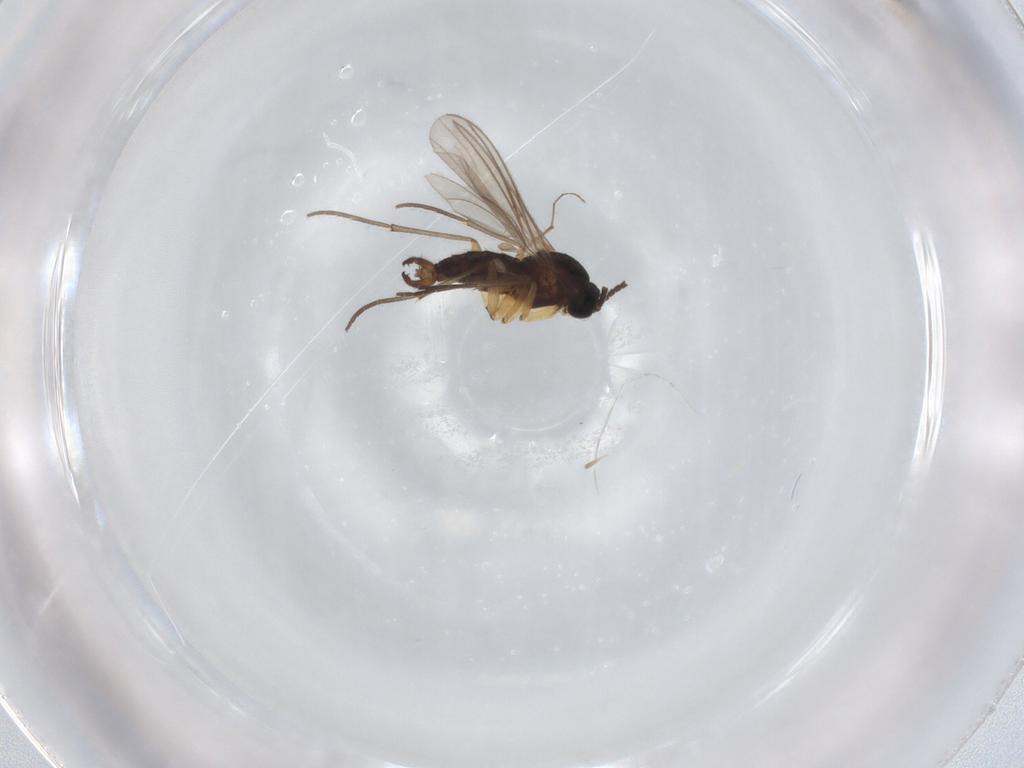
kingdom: Animalia
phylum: Arthropoda
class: Insecta
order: Diptera
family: Sciaridae
